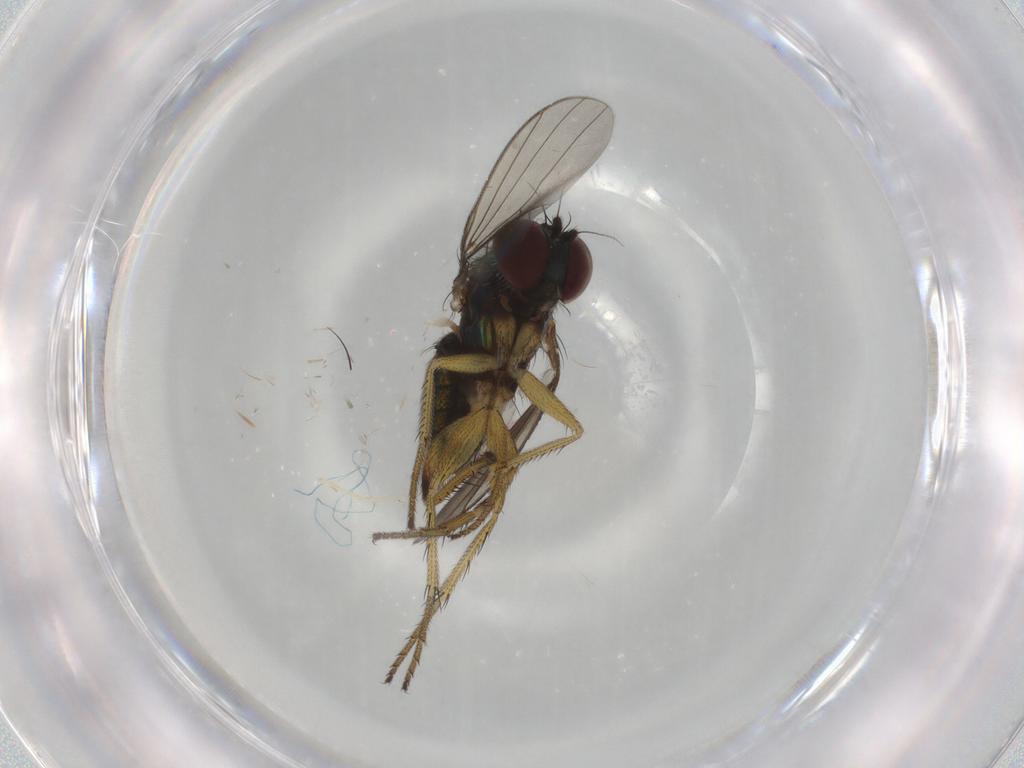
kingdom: Animalia
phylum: Arthropoda
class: Insecta
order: Diptera
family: Dolichopodidae
